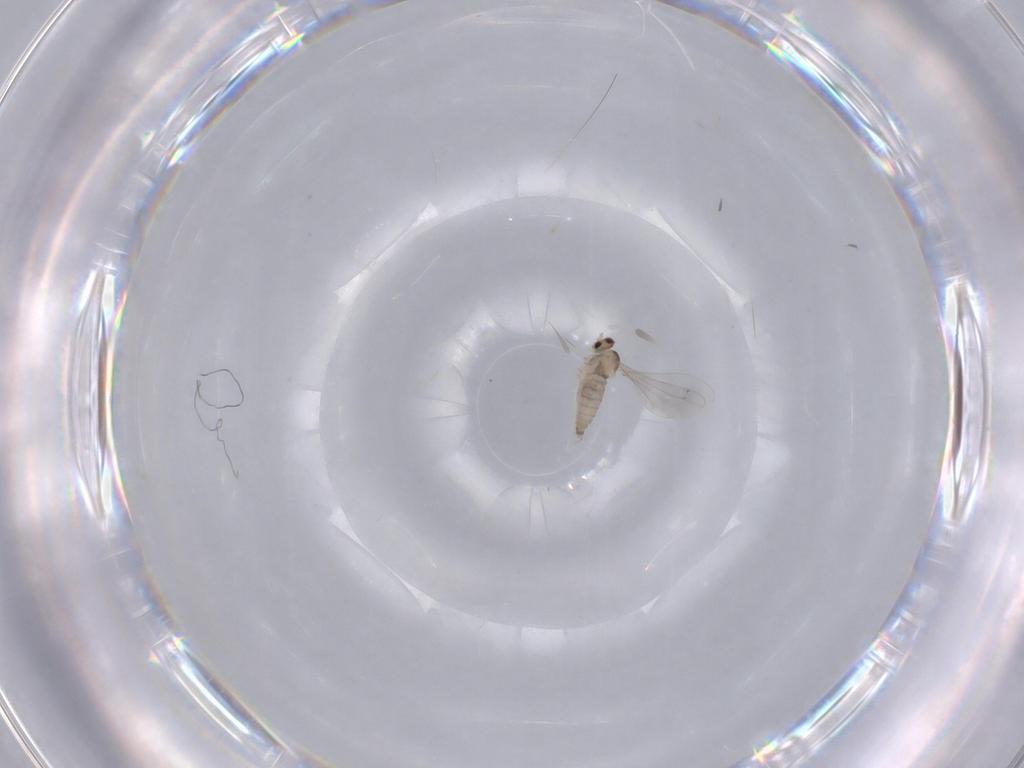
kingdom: Animalia
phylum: Arthropoda
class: Insecta
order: Diptera
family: Cecidomyiidae
